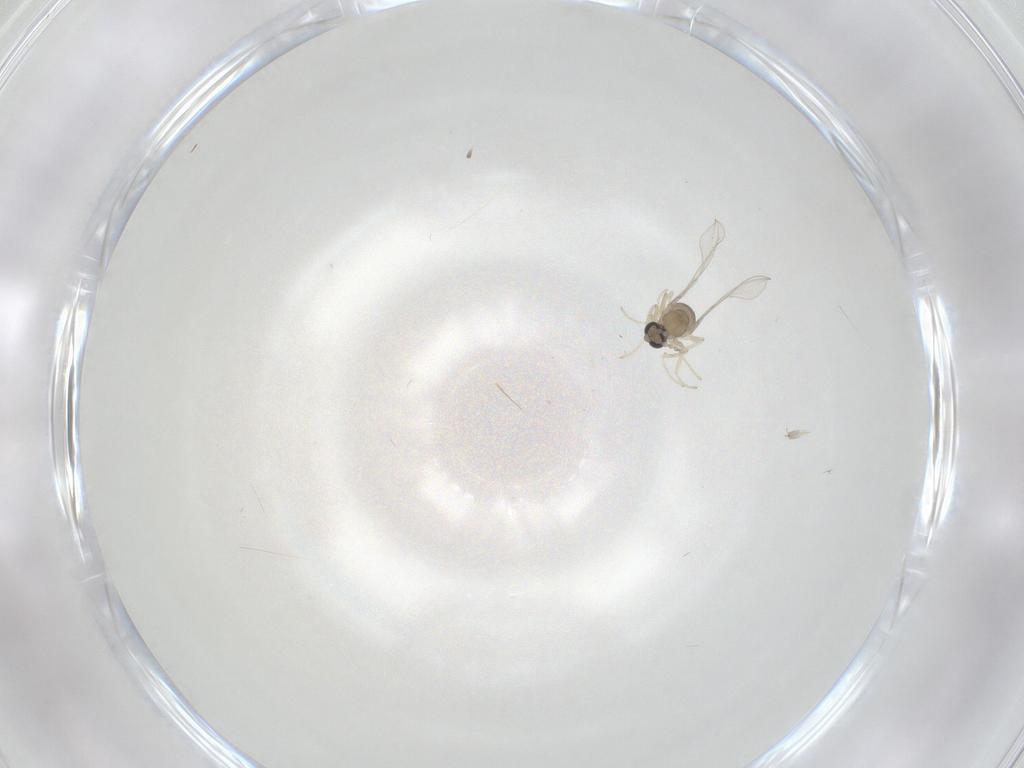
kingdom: Animalia
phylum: Arthropoda
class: Insecta
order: Diptera
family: Cecidomyiidae
